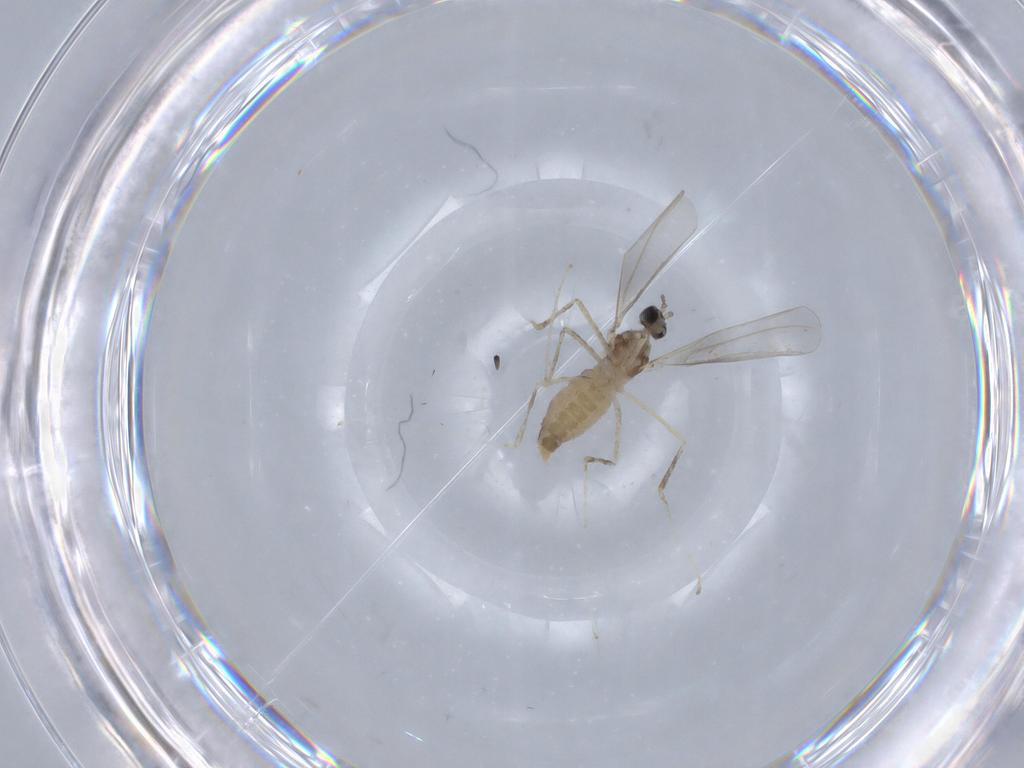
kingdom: Animalia
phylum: Arthropoda
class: Insecta
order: Diptera
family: Cecidomyiidae
